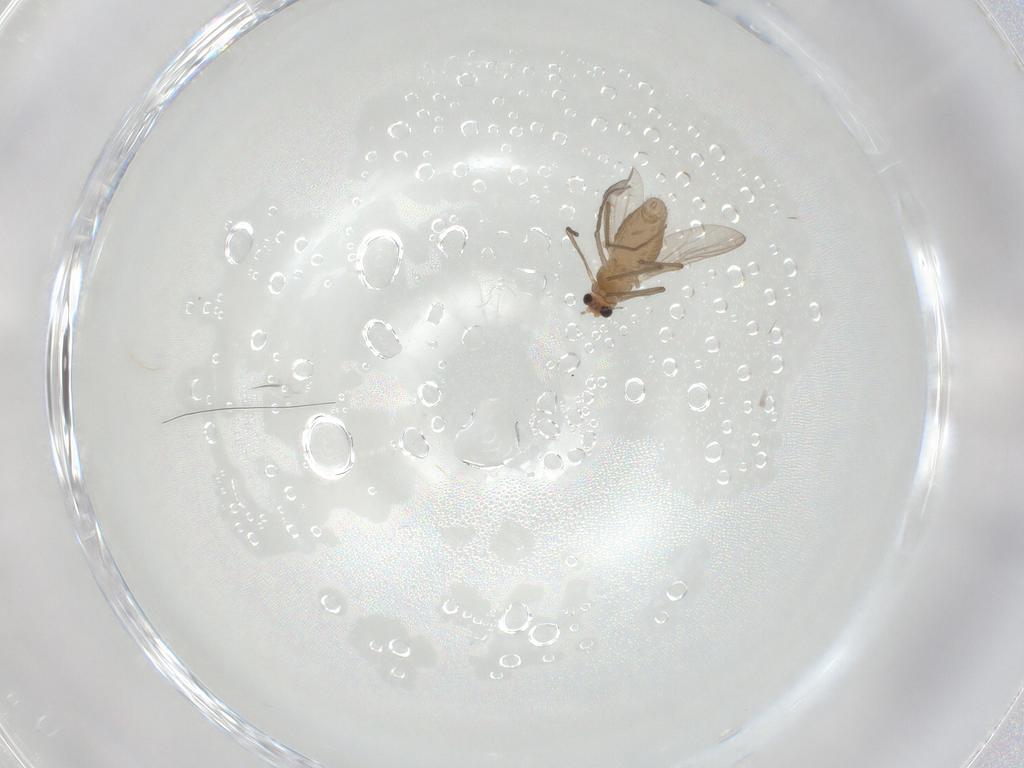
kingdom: Animalia
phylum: Arthropoda
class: Insecta
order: Diptera
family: Chironomidae
